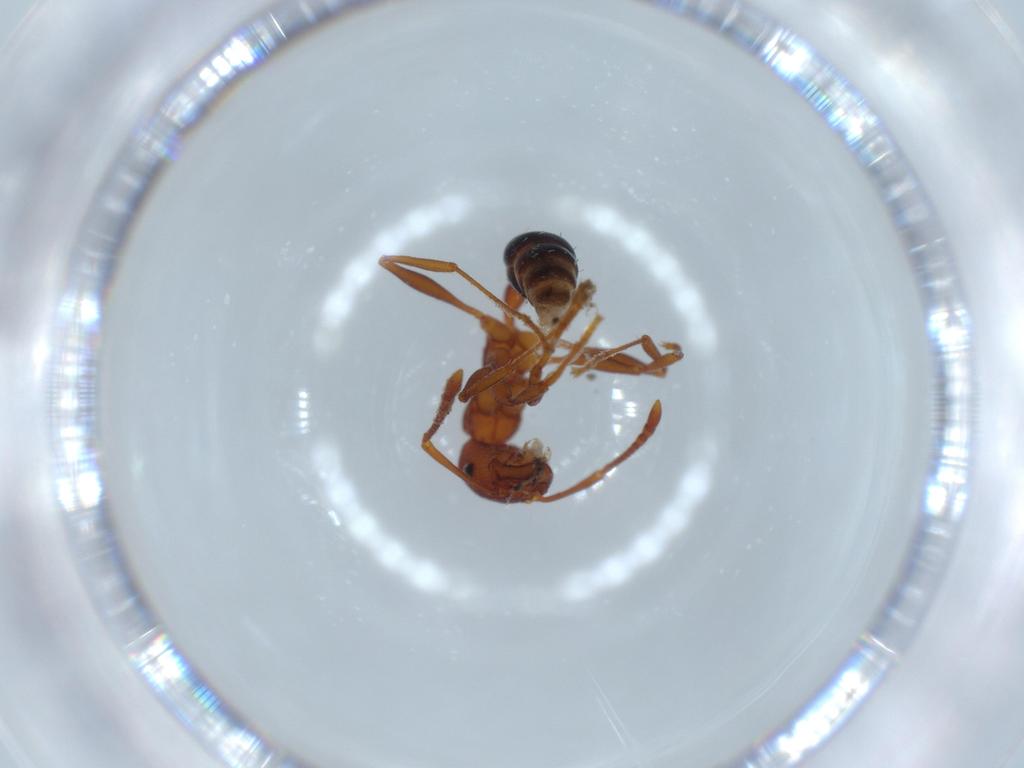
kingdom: Animalia
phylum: Arthropoda
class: Insecta
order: Hymenoptera
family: Formicidae
